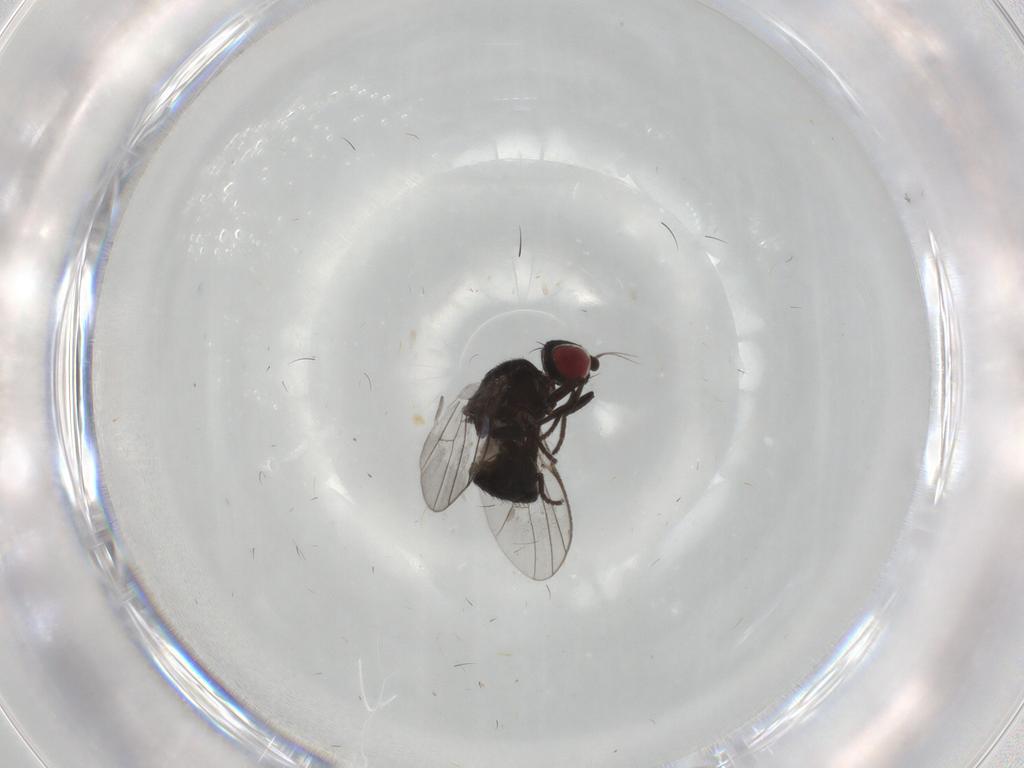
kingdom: Animalia
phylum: Arthropoda
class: Insecta
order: Diptera
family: Agromyzidae
